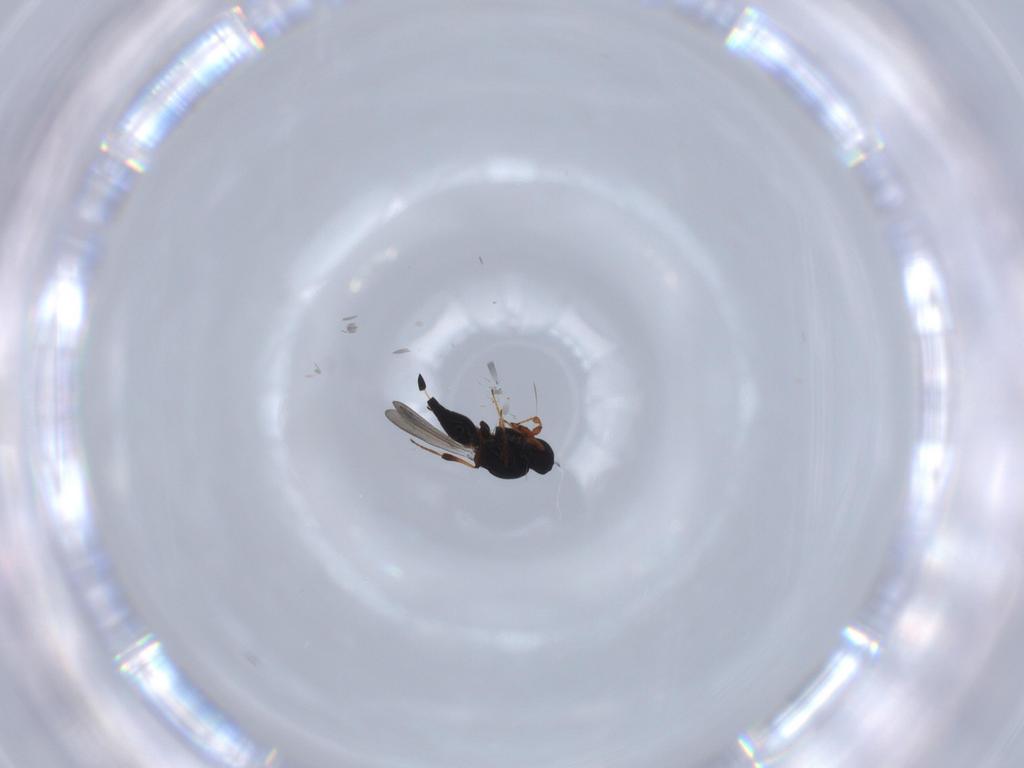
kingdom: Animalia
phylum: Arthropoda
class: Insecta
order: Hymenoptera
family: Platygastridae
